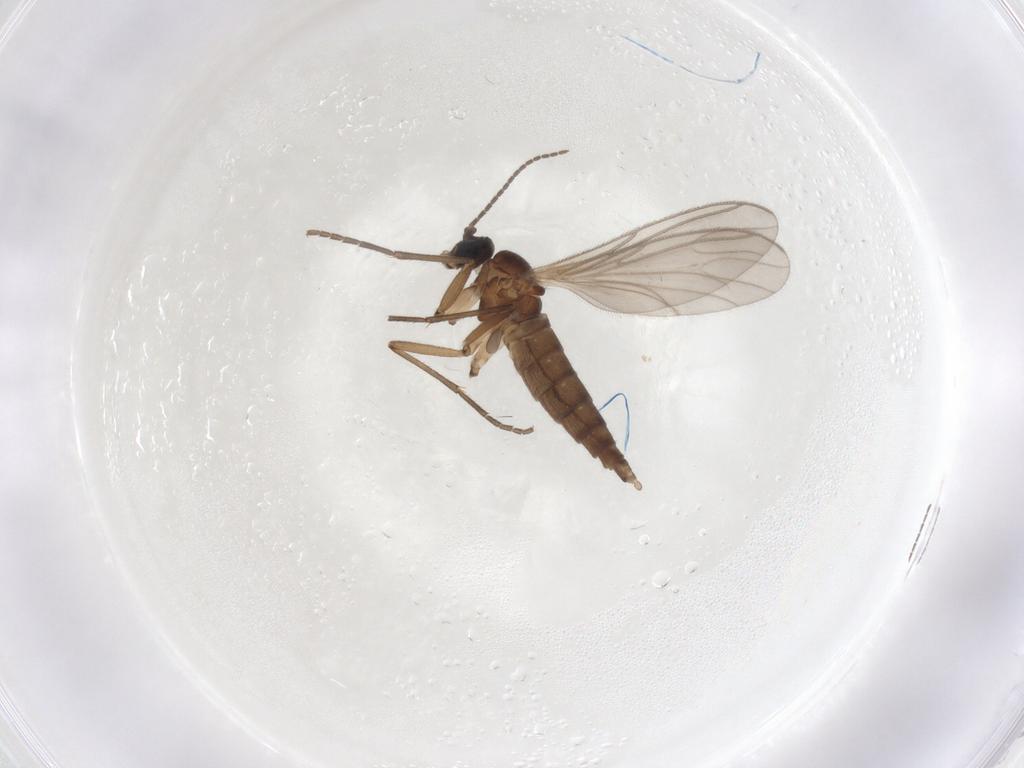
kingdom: Animalia
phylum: Arthropoda
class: Insecta
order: Diptera
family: Sciaridae
